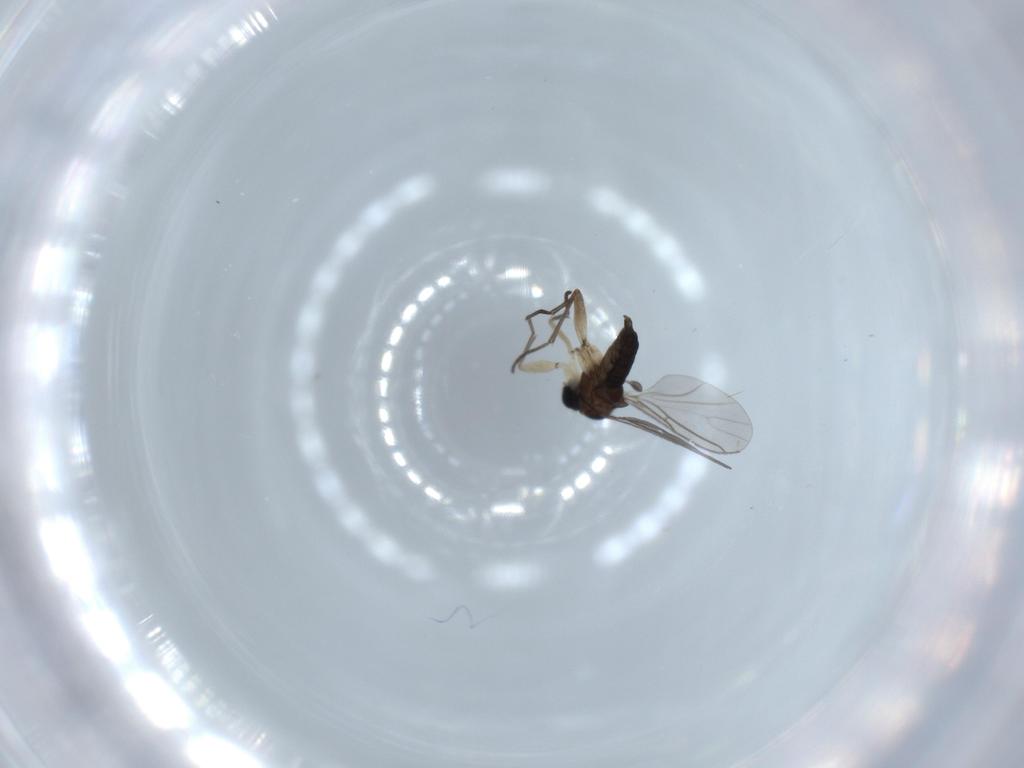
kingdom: Animalia
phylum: Arthropoda
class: Insecta
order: Diptera
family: Sciaridae
